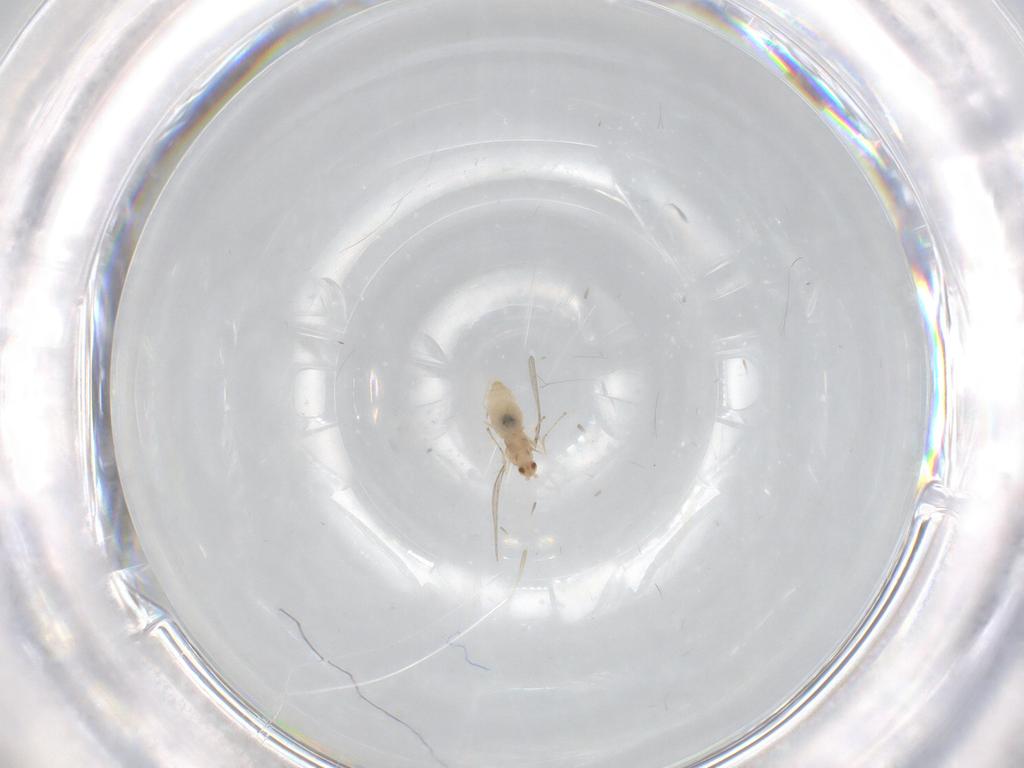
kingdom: Animalia
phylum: Arthropoda
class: Insecta
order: Diptera
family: Cecidomyiidae
